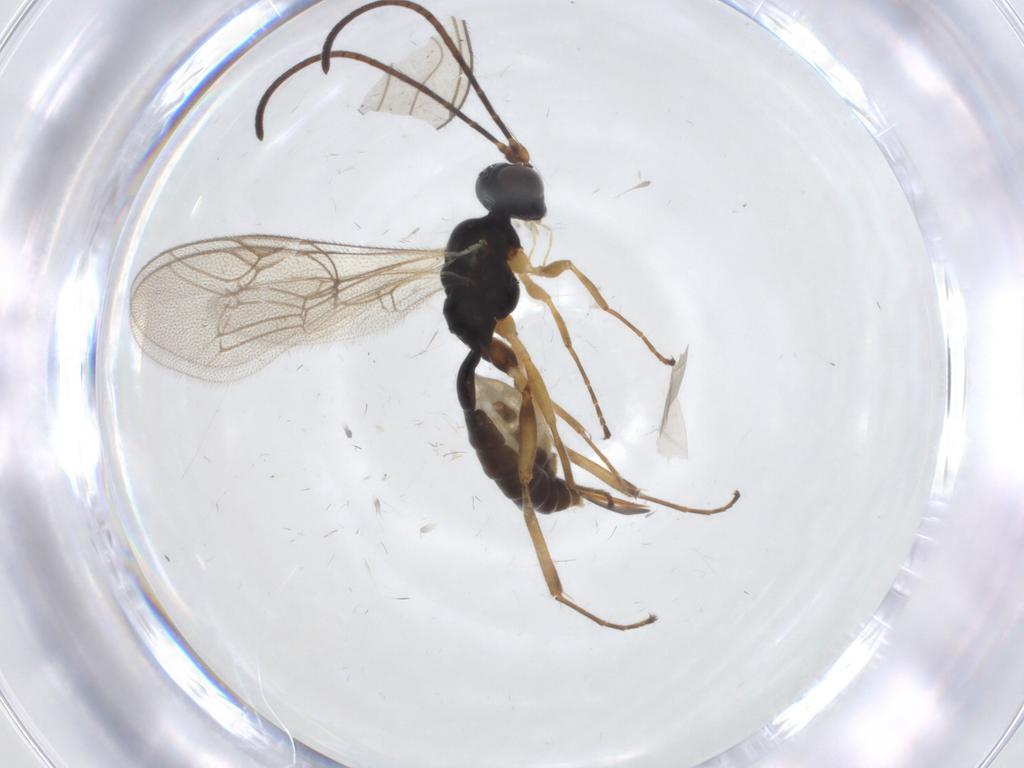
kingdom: Animalia
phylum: Arthropoda
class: Insecta
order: Hymenoptera
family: Ichneumonidae
